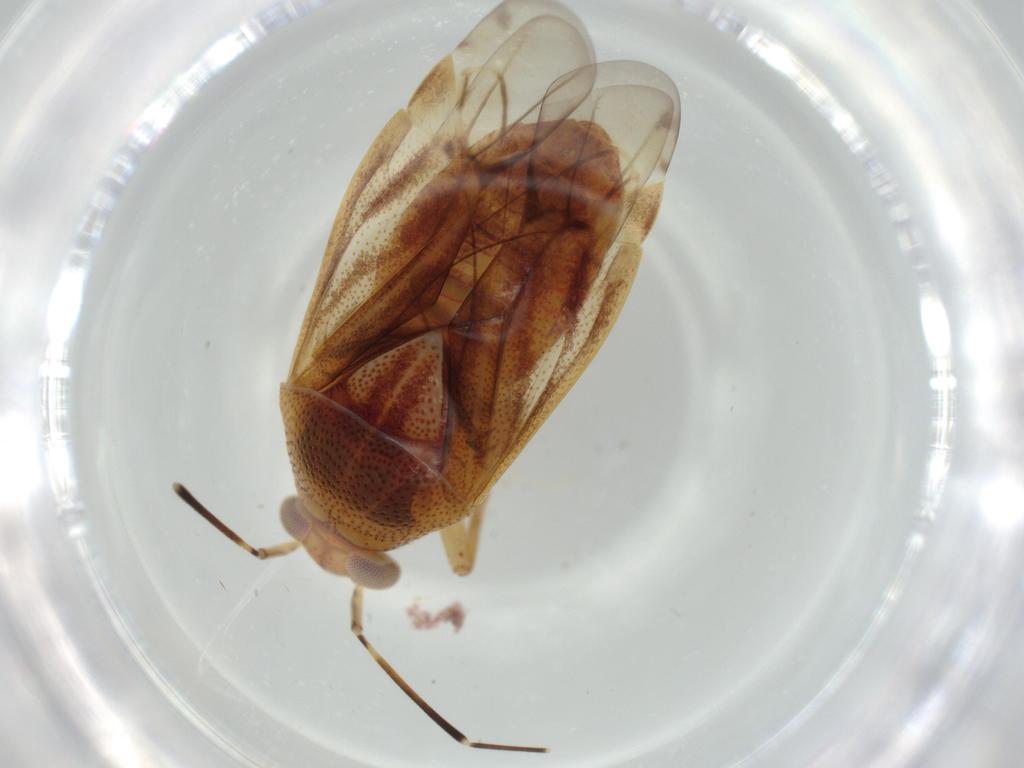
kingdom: Animalia
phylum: Arthropoda
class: Insecta
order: Hemiptera
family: Miridae
